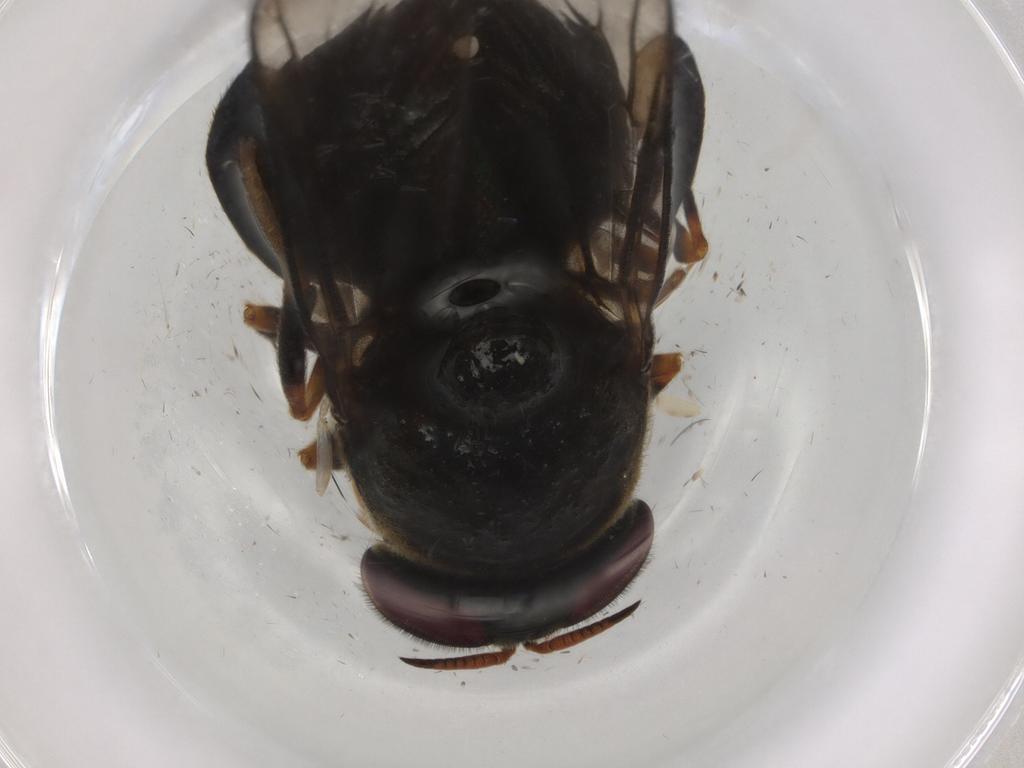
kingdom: Animalia
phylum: Arthropoda
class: Insecta
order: Diptera
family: Stratiomyidae
